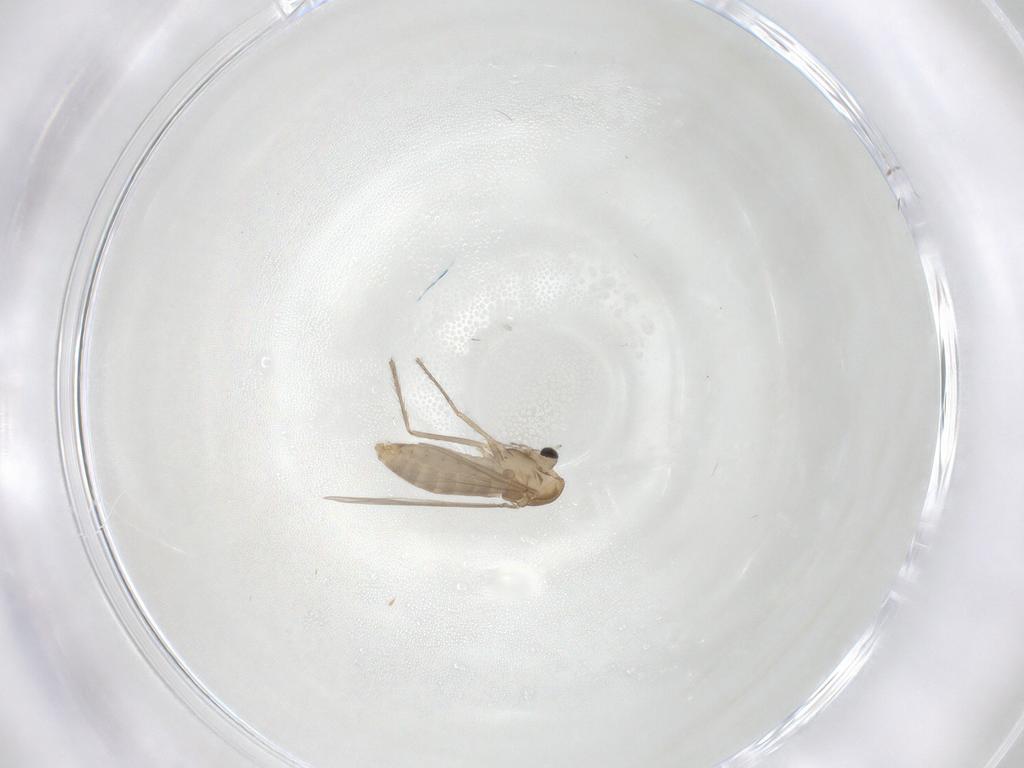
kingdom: Animalia
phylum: Arthropoda
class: Insecta
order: Diptera
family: Chironomidae
